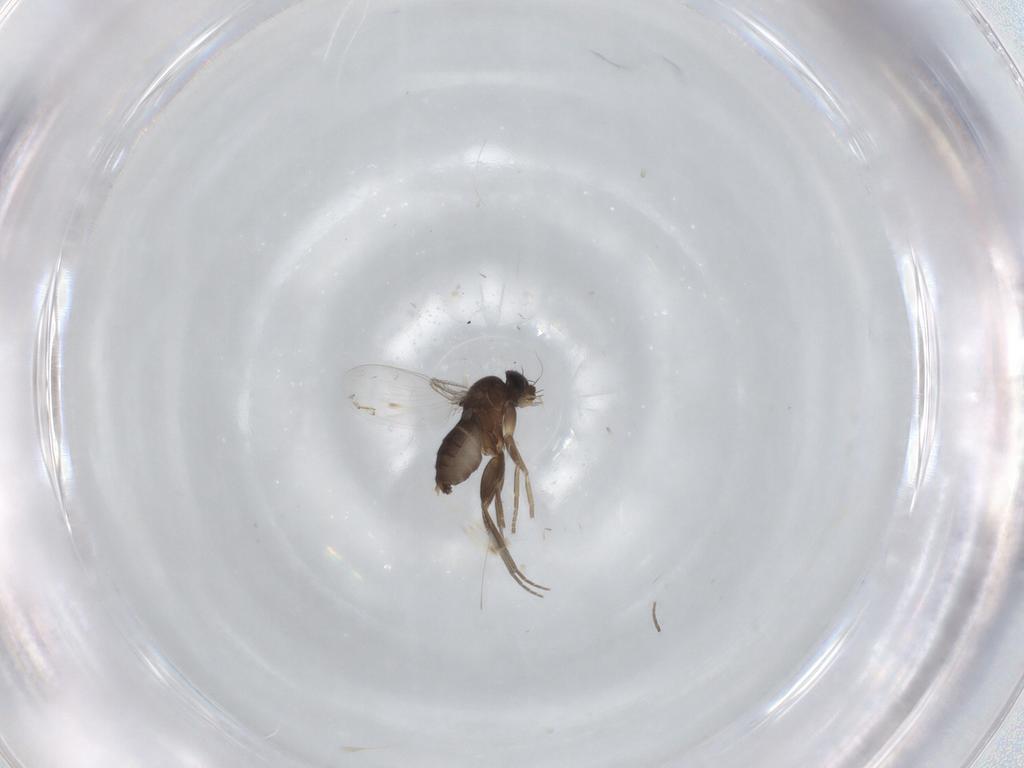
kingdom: Animalia
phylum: Arthropoda
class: Insecta
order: Diptera
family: Phoridae
